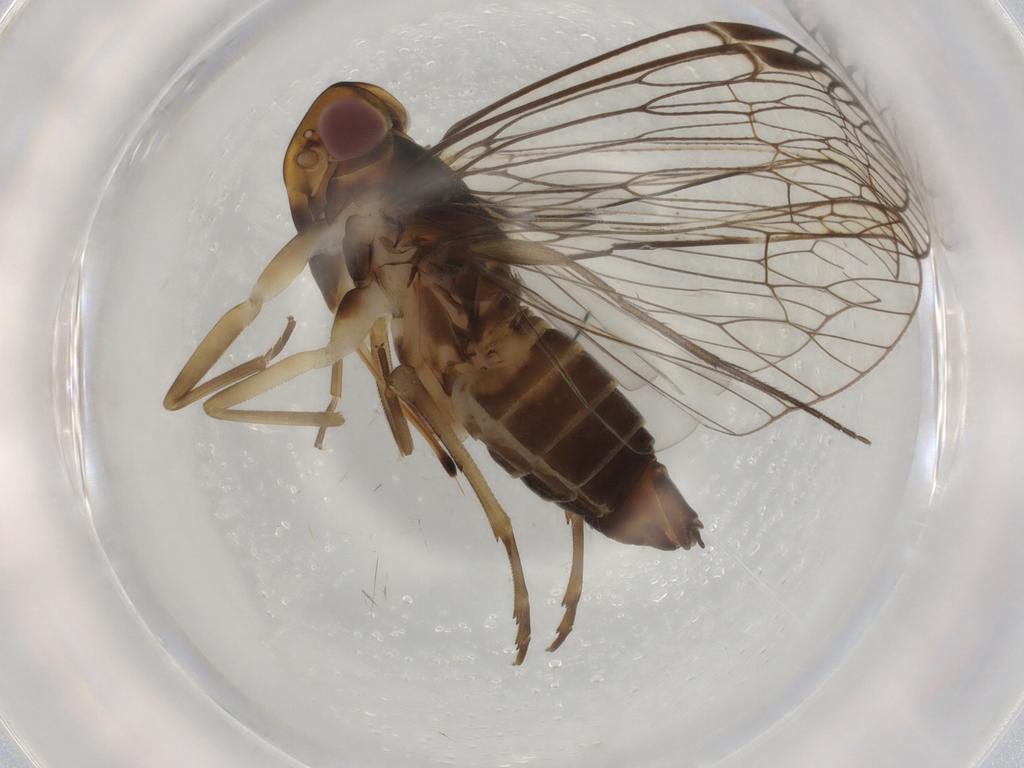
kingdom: Animalia
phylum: Arthropoda
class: Insecta
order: Hemiptera
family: Cixiidae
